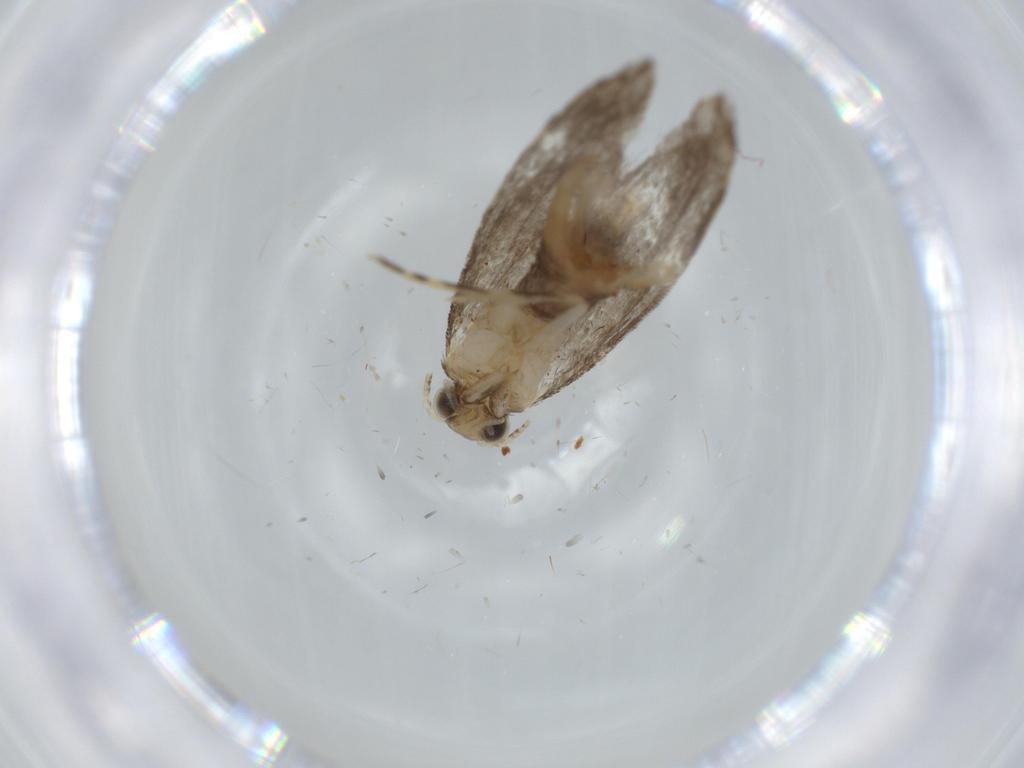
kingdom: Animalia
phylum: Arthropoda
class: Insecta
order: Lepidoptera
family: Tineidae
